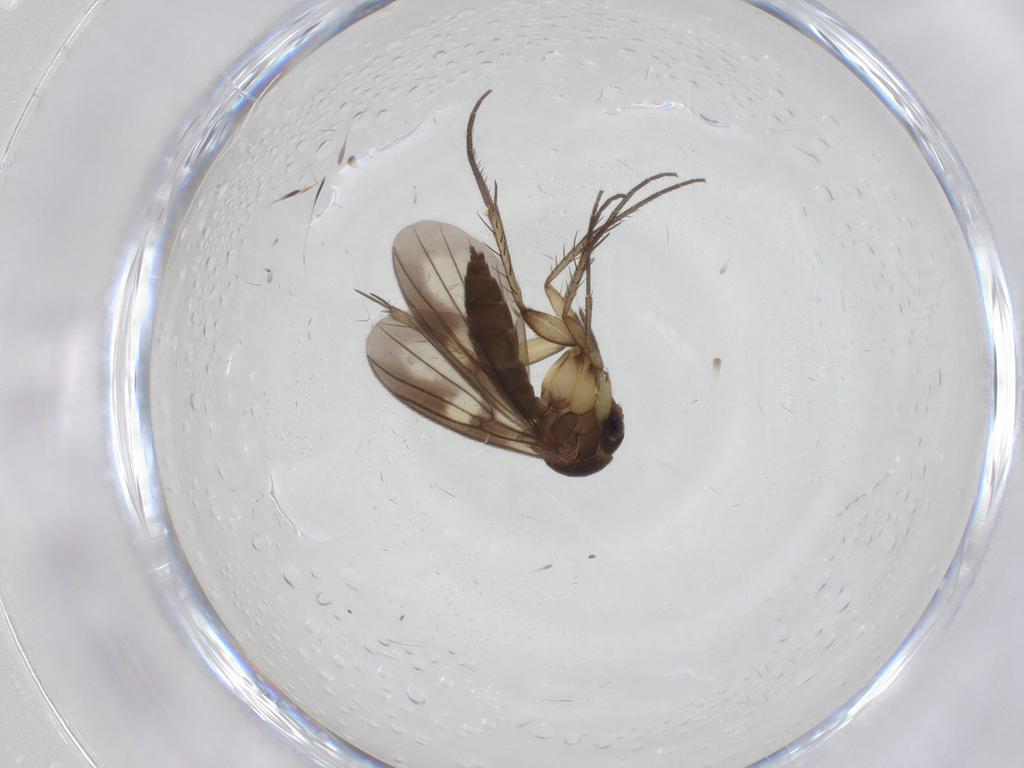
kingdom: Animalia
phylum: Arthropoda
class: Insecta
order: Diptera
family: Mycetophilidae
